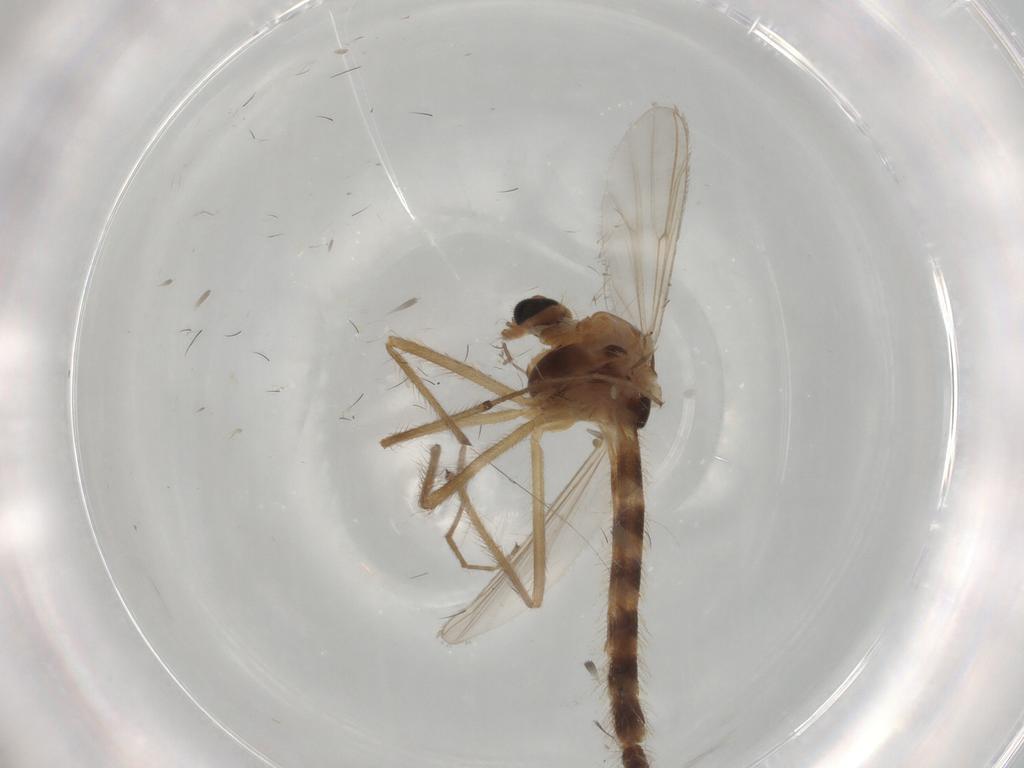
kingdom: Animalia
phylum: Arthropoda
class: Insecta
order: Diptera
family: Chironomidae
